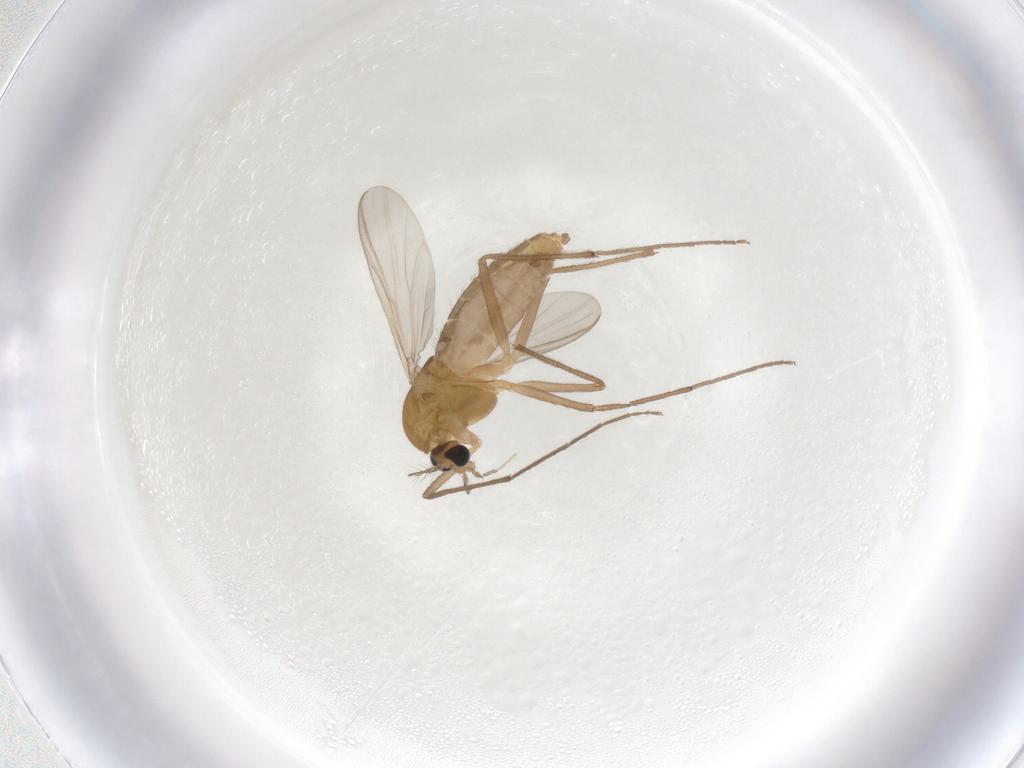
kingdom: Animalia
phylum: Arthropoda
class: Insecta
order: Diptera
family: Chironomidae
